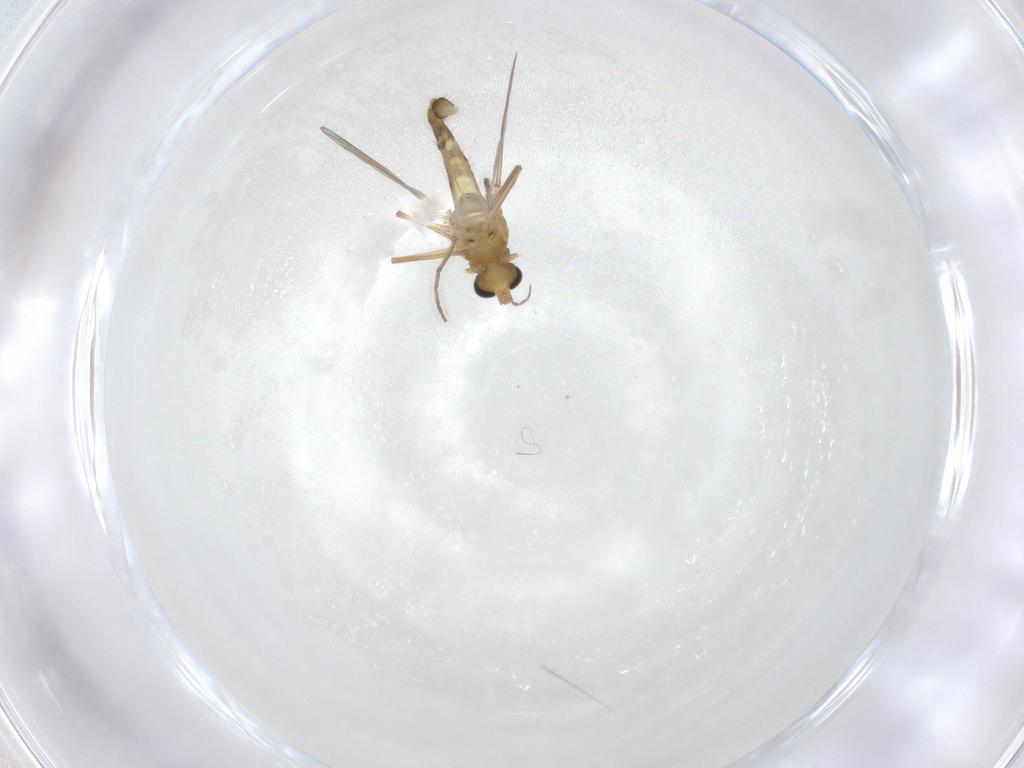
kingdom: Animalia
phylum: Arthropoda
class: Insecta
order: Diptera
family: Chironomidae
